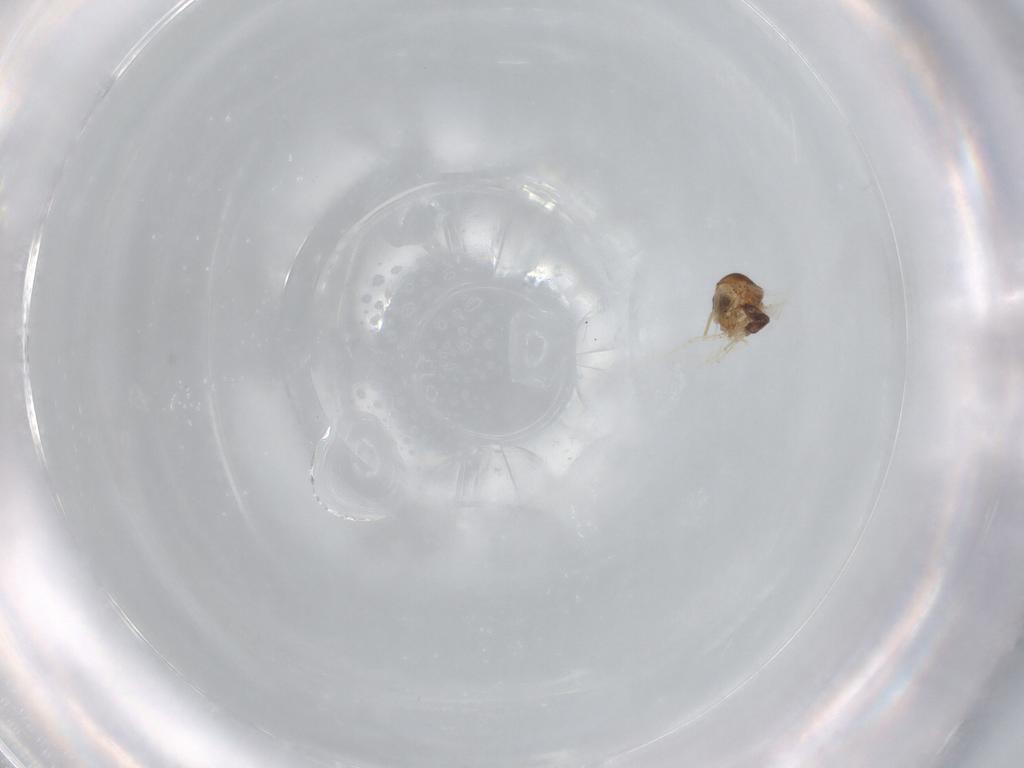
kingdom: Animalia
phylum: Arthropoda
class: Insecta
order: Diptera
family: Ceratopogonidae
